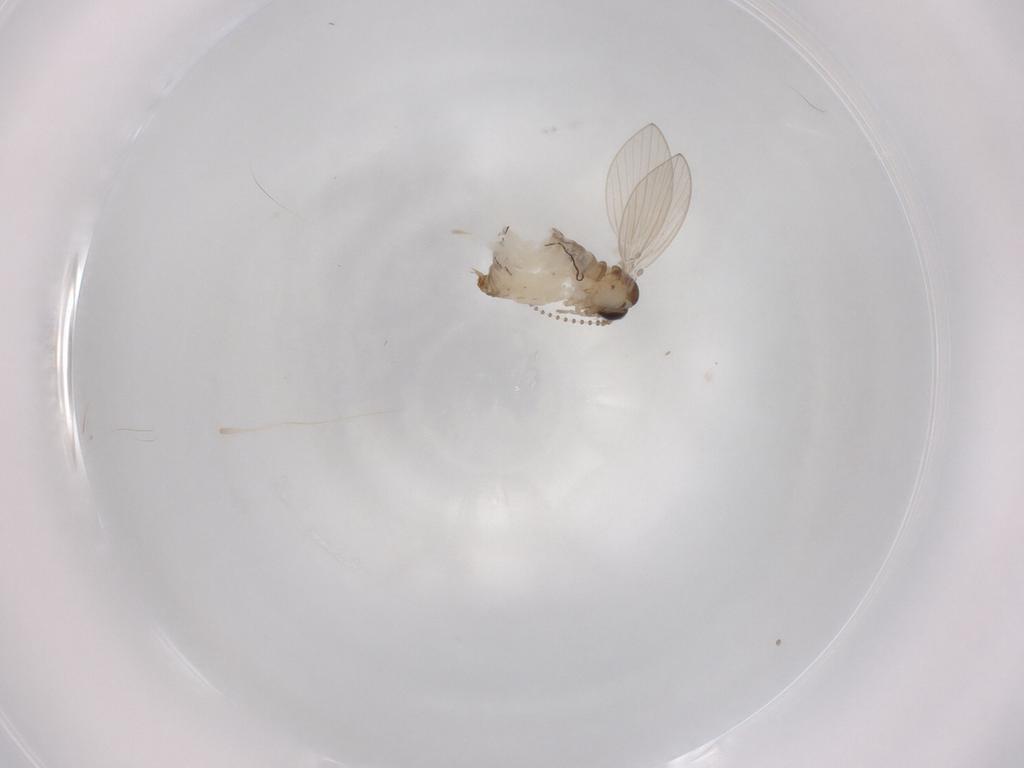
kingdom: Animalia
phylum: Arthropoda
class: Insecta
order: Diptera
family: Psychodidae
